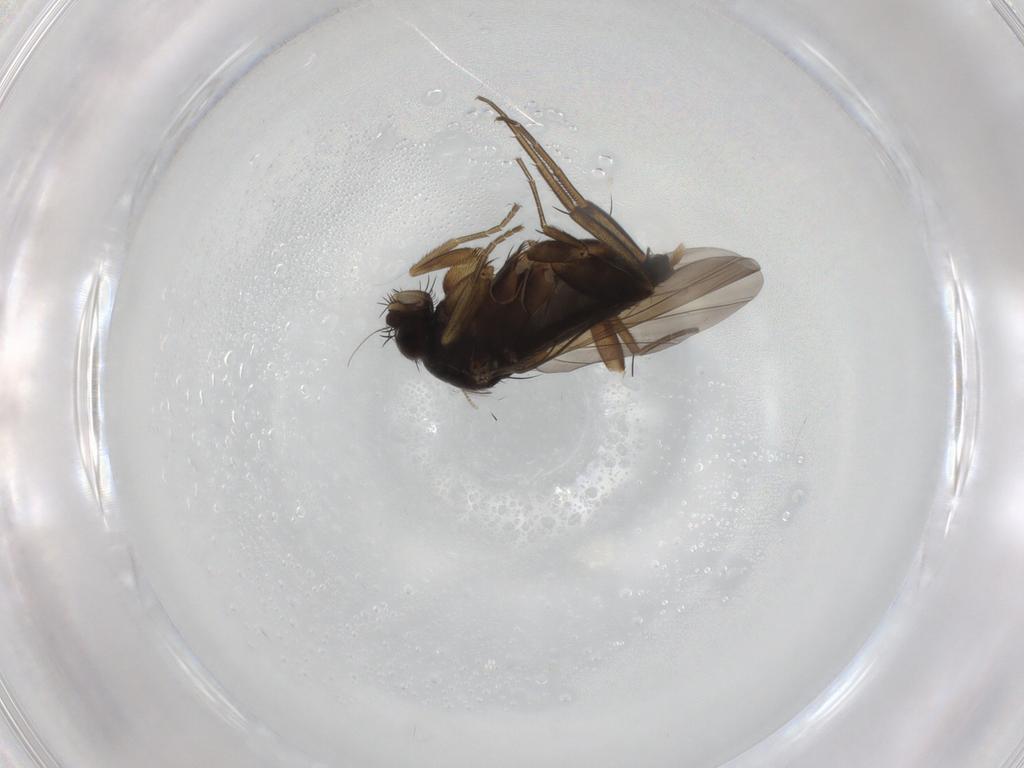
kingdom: Animalia
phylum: Arthropoda
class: Insecta
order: Diptera
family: Phoridae
